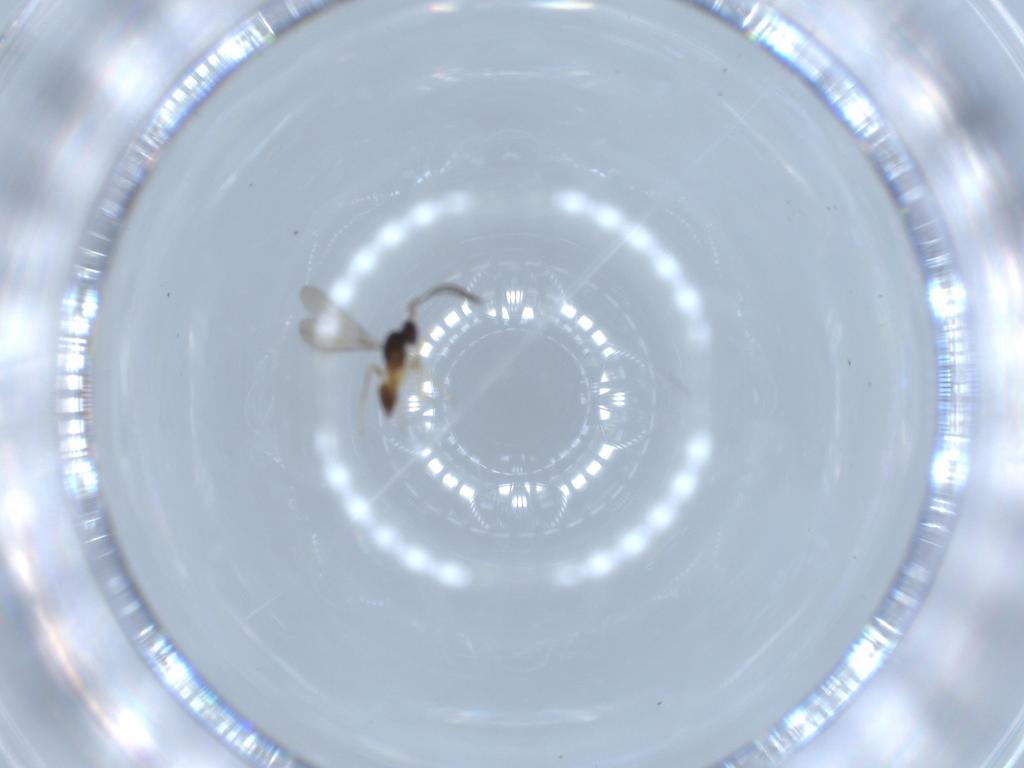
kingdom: Animalia
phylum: Arthropoda
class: Insecta
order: Hymenoptera
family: Mymaridae
